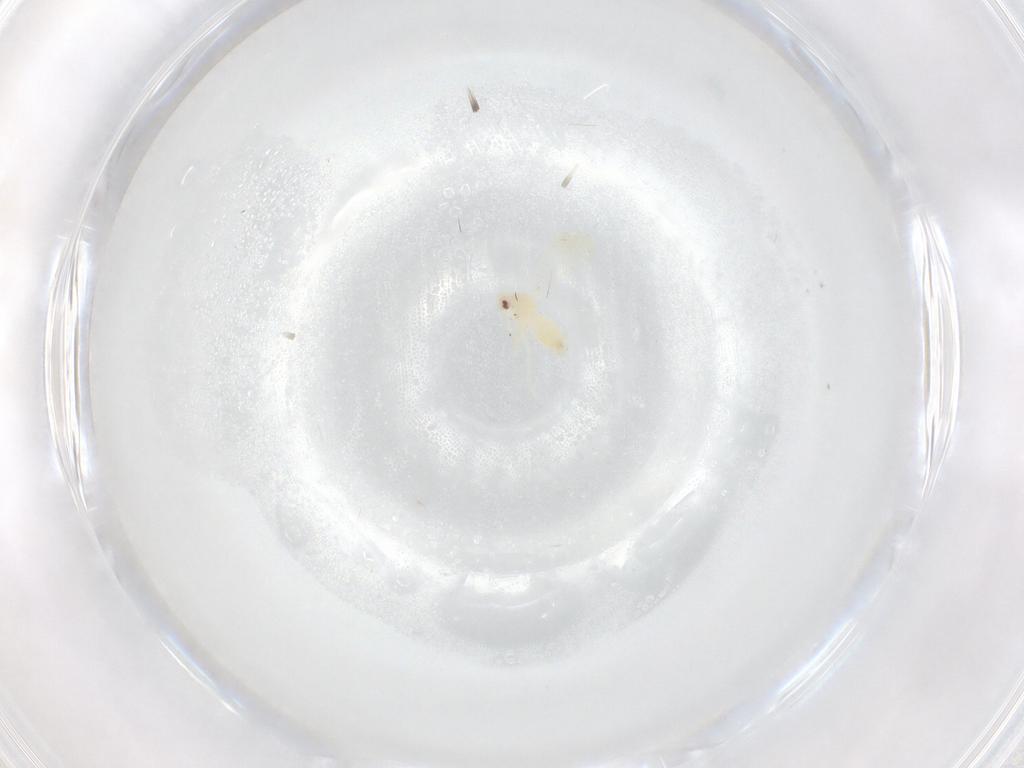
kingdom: Animalia
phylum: Arthropoda
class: Insecta
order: Hemiptera
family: Aleyrodidae
